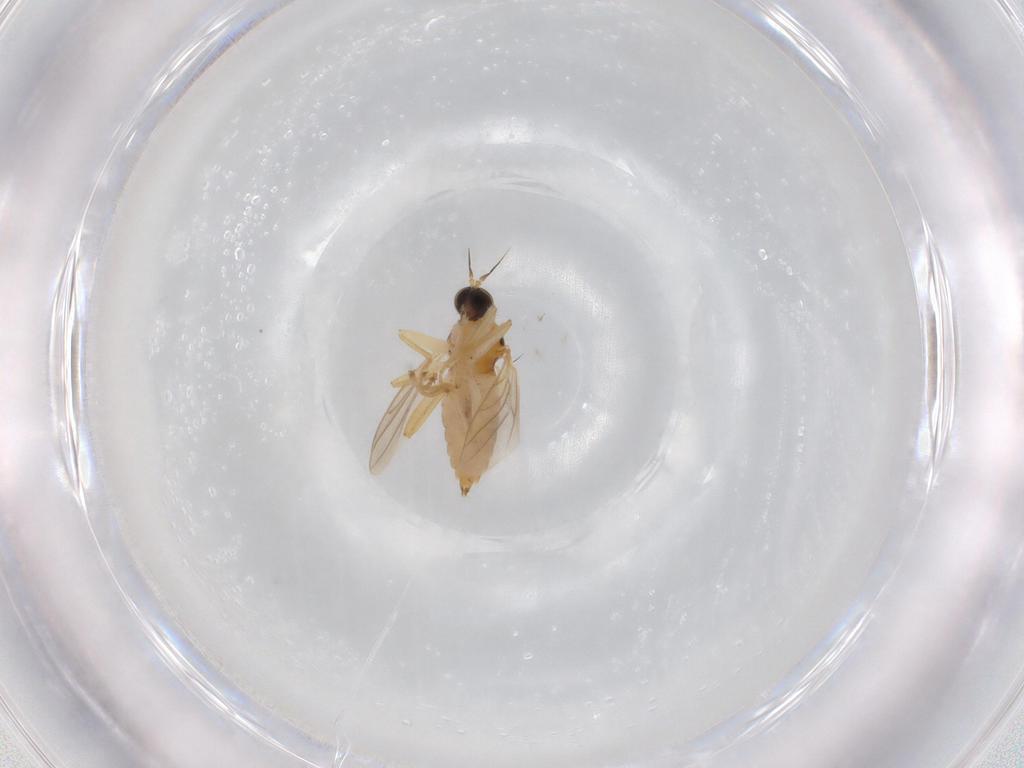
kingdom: Animalia
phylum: Arthropoda
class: Insecta
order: Diptera
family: Hybotidae
